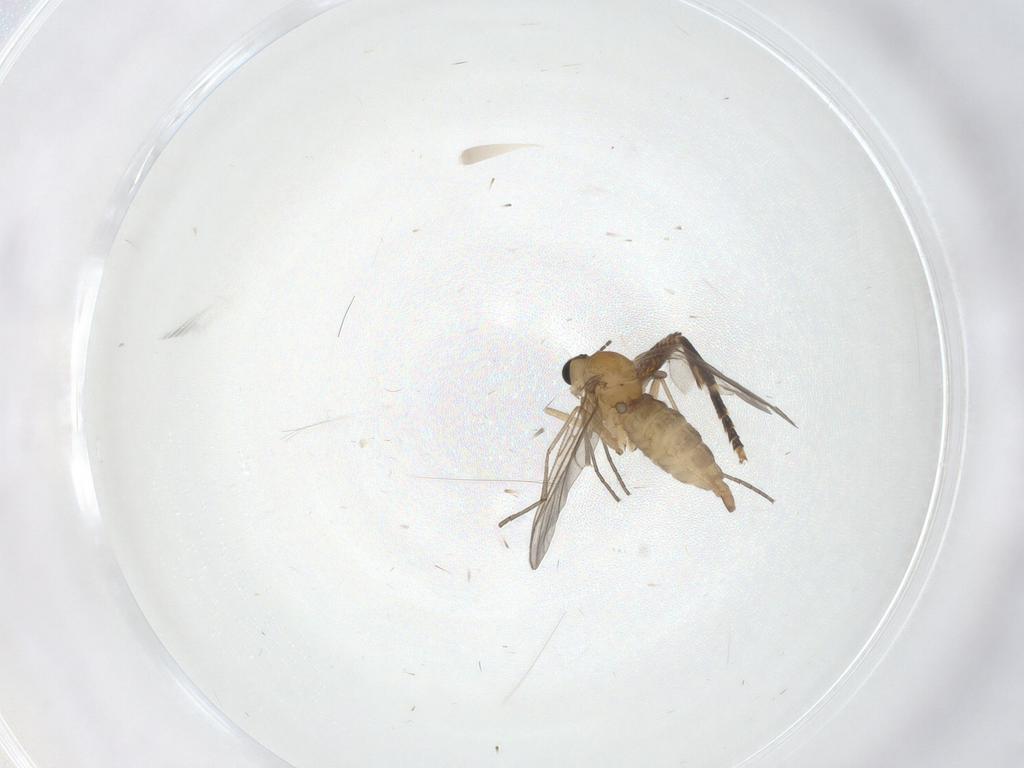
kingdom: Animalia
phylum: Arthropoda
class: Insecta
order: Diptera
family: Sciaridae
